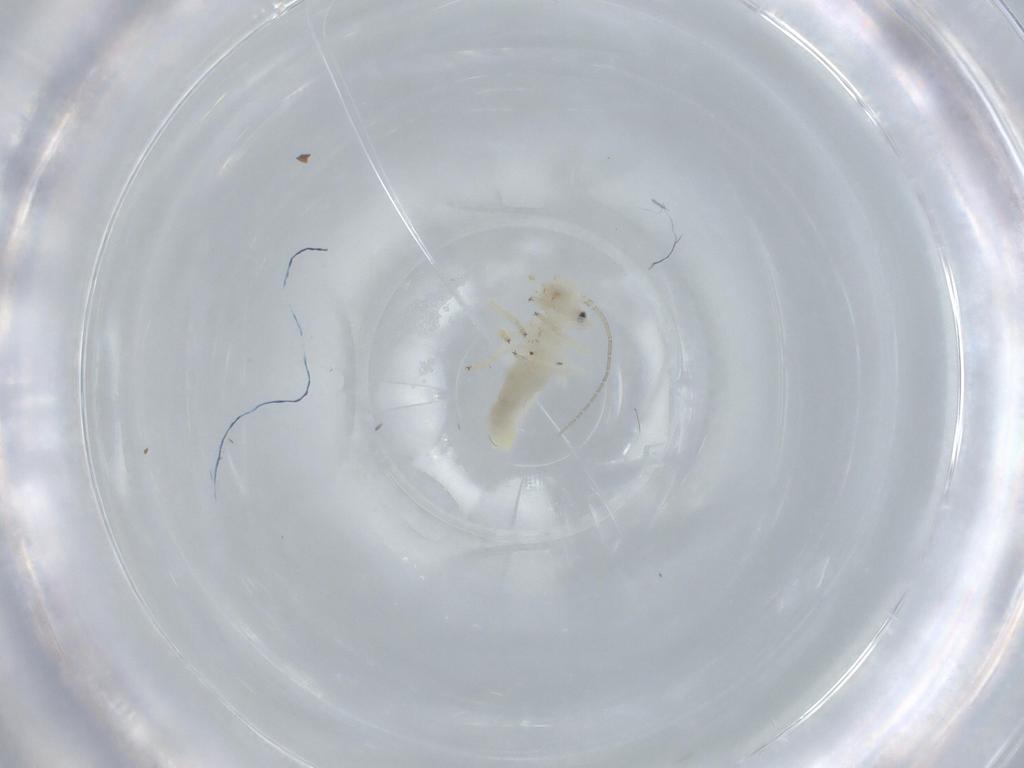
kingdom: Animalia
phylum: Arthropoda
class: Insecta
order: Psocodea
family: Caeciliusidae
